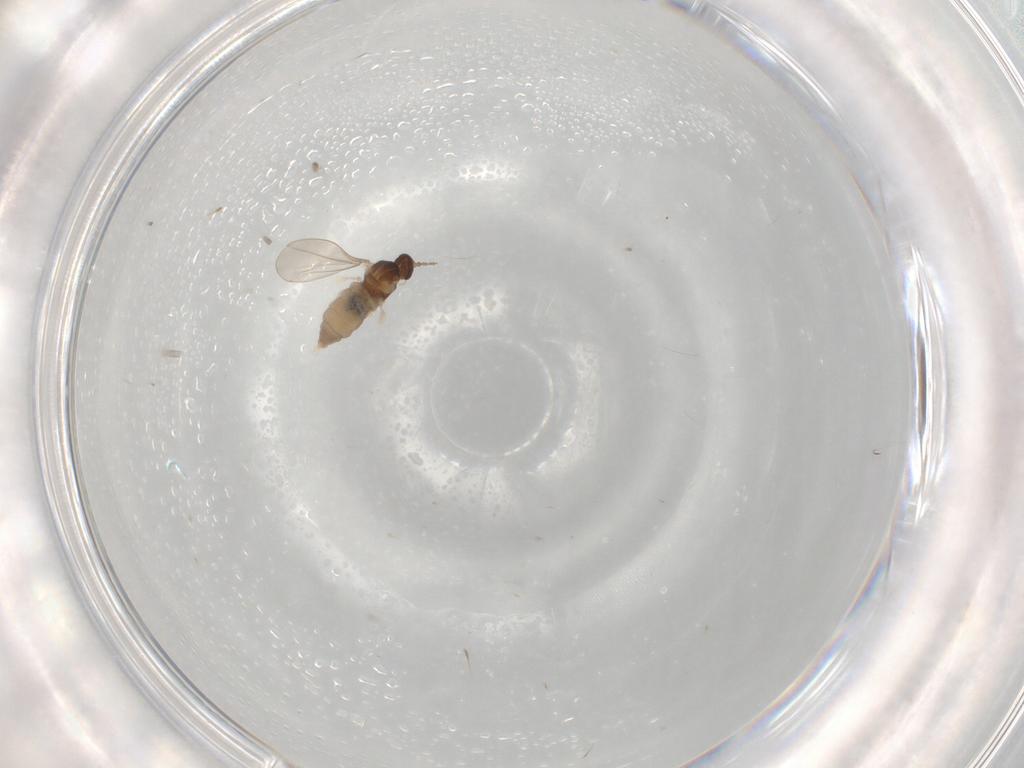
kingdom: Animalia
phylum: Arthropoda
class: Insecta
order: Diptera
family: Cecidomyiidae
